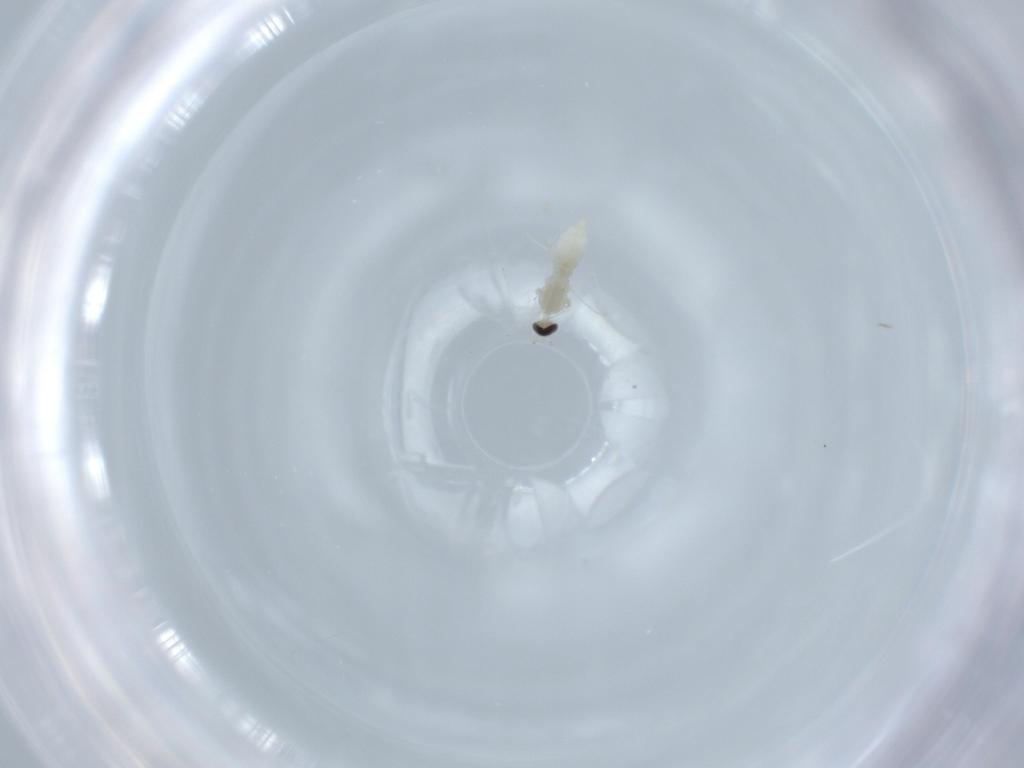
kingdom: Animalia
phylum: Arthropoda
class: Insecta
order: Diptera
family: Cecidomyiidae
